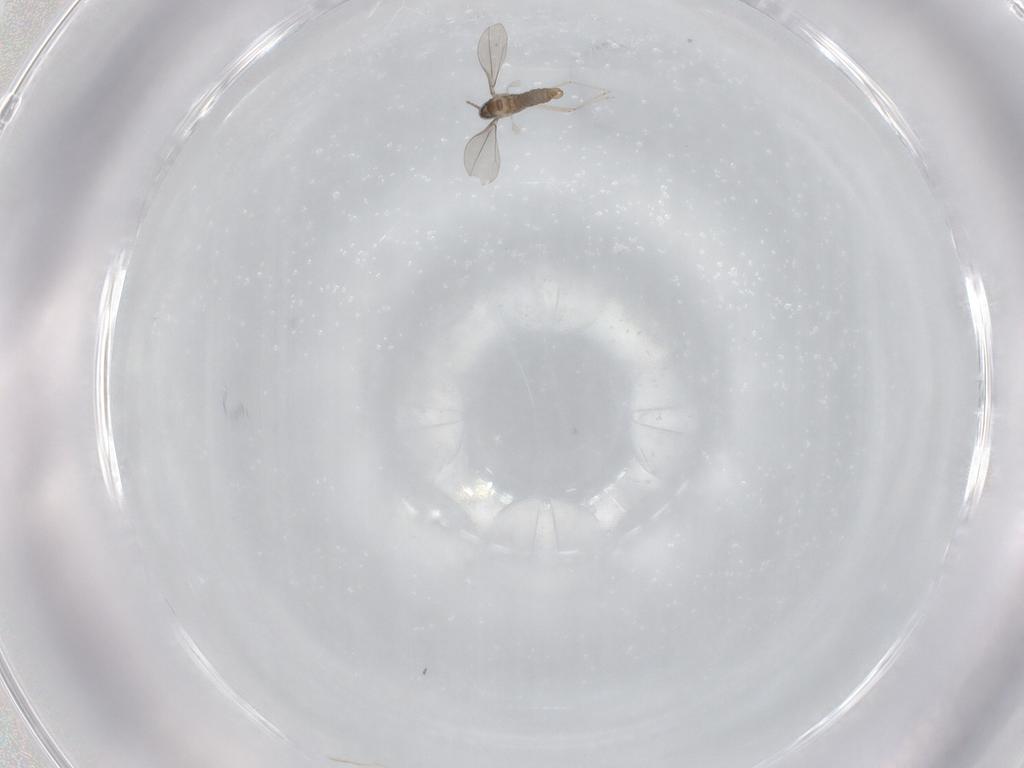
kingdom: Animalia
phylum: Arthropoda
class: Insecta
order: Diptera
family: Cecidomyiidae
